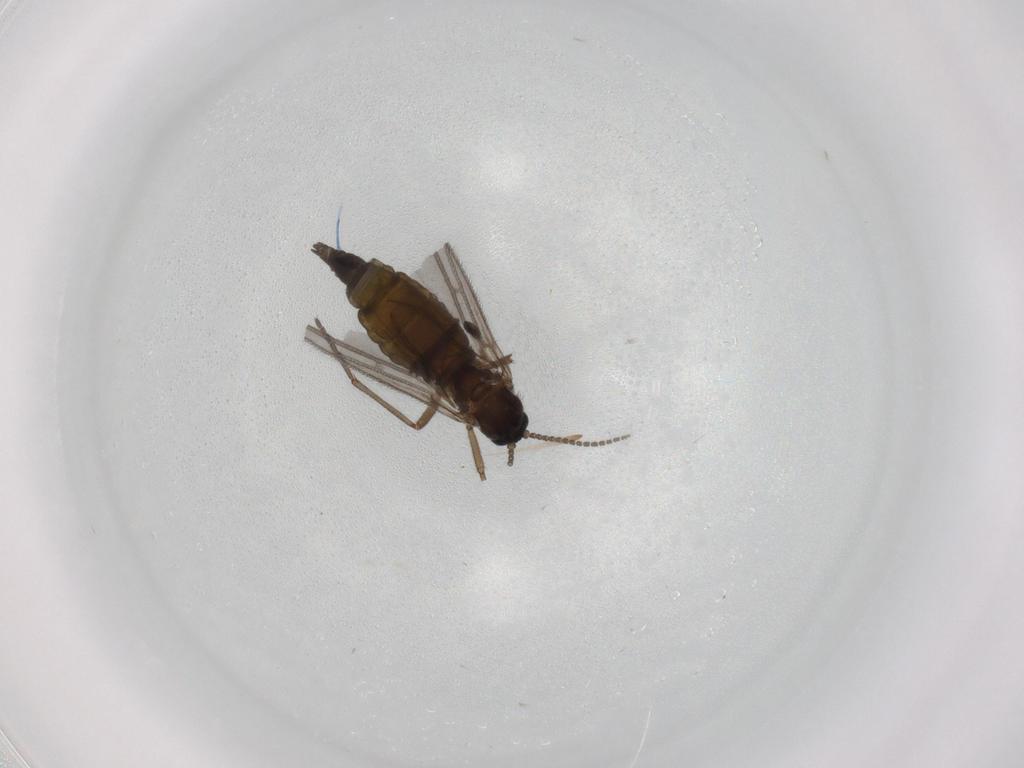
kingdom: Animalia
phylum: Arthropoda
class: Insecta
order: Diptera
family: Sciaridae
